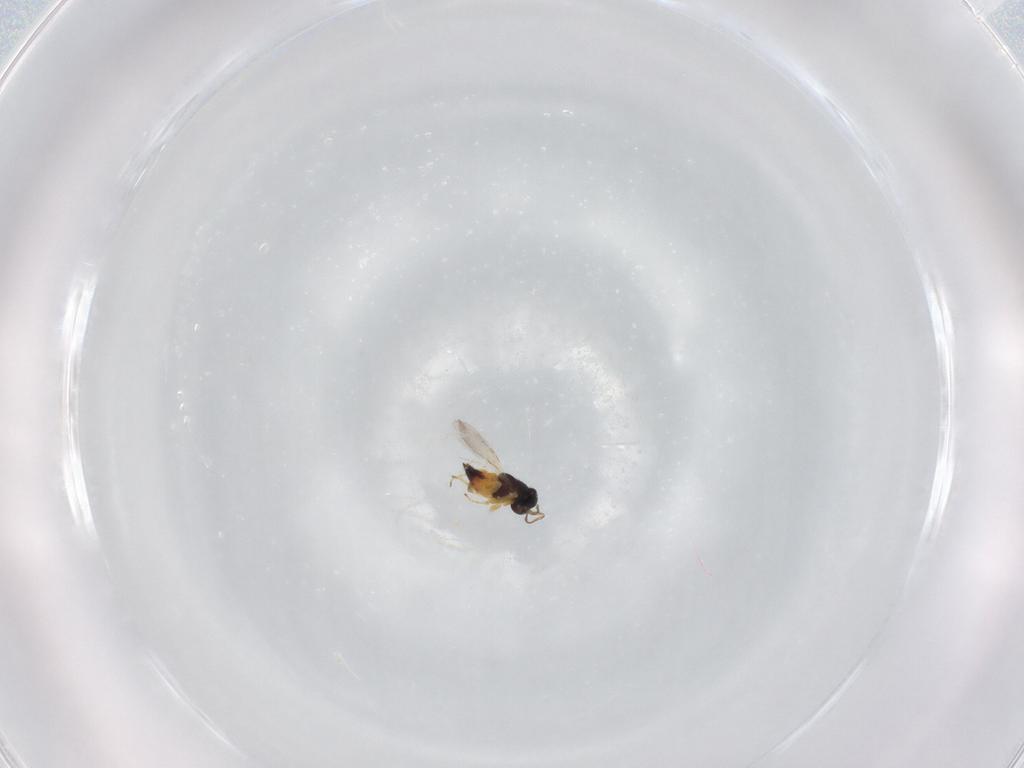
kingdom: Animalia
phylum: Arthropoda
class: Insecta
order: Hymenoptera
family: Encyrtidae
